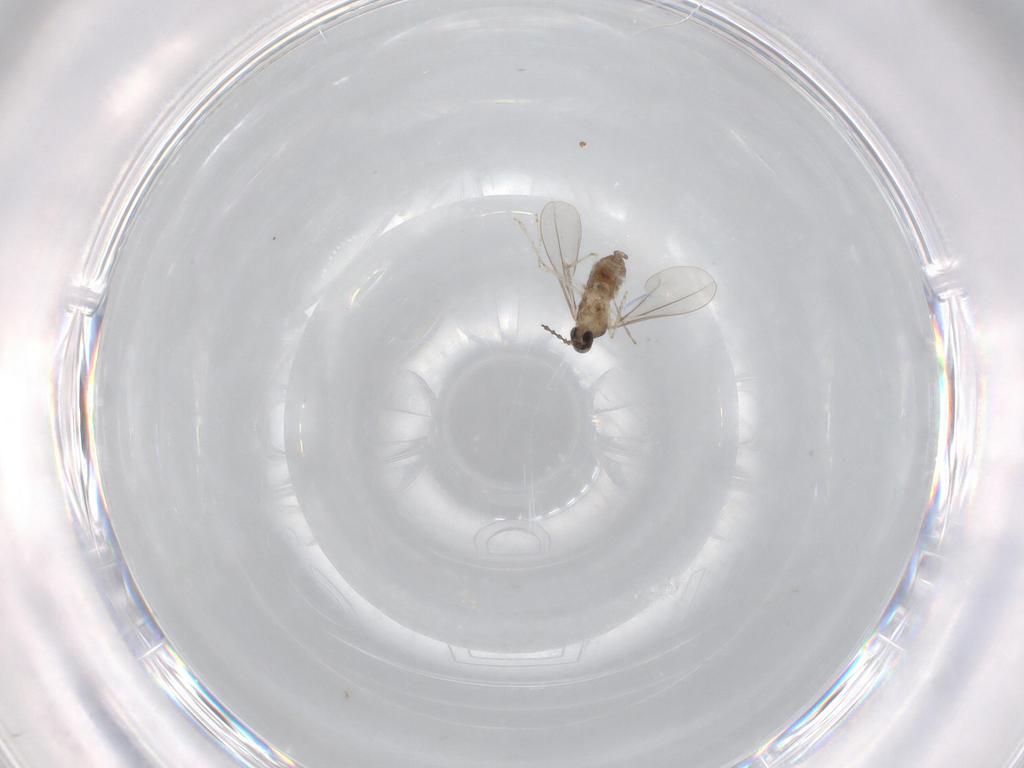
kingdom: Animalia
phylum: Arthropoda
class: Insecta
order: Diptera
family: Cecidomyiidae
